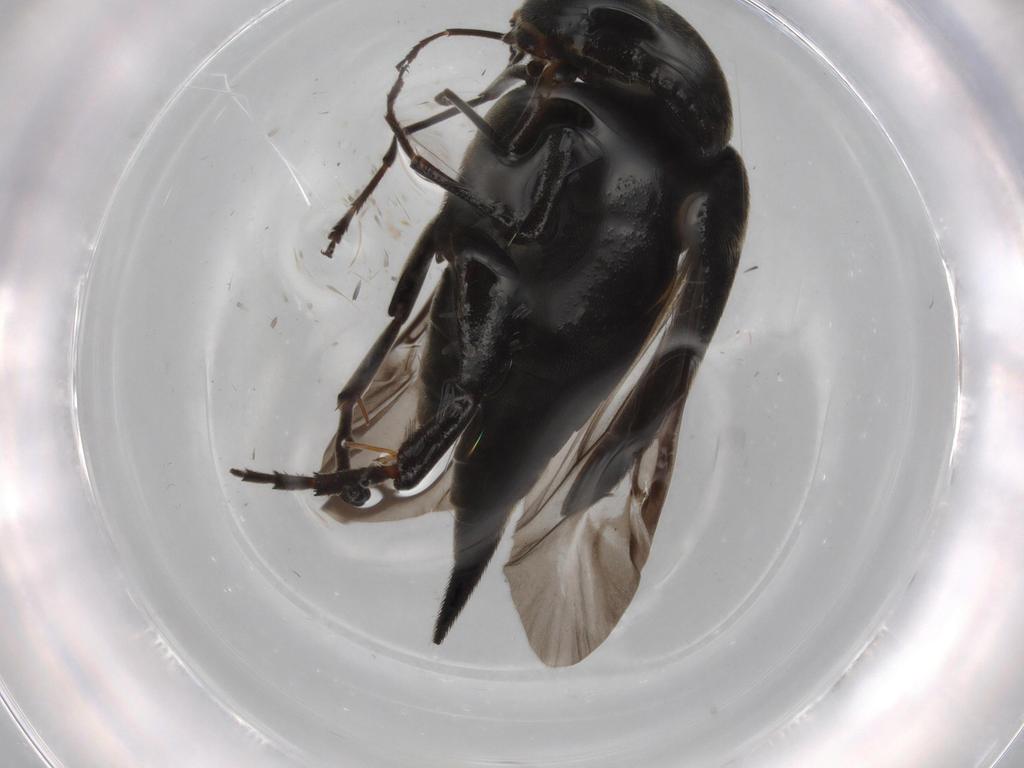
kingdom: Animalia
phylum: Arthropoda
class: Insecta
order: Coleoptera
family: Mordellidae
